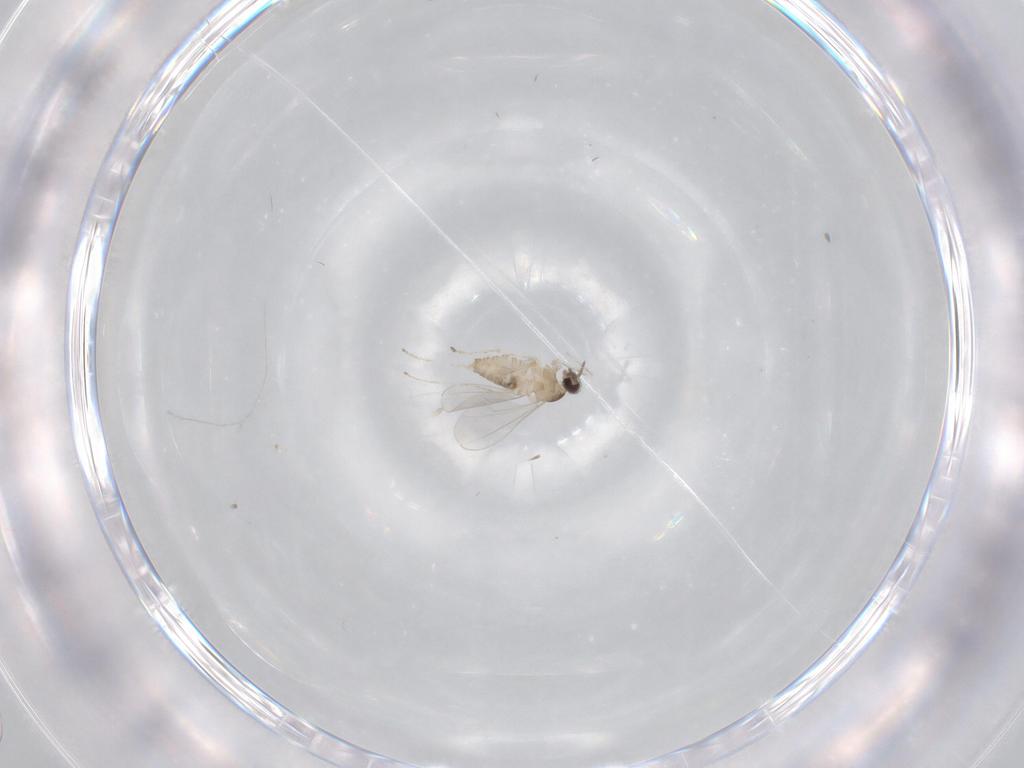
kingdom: Animalia
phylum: Arthropoda
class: Insecta
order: Diptera
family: Cecidomyiidae
